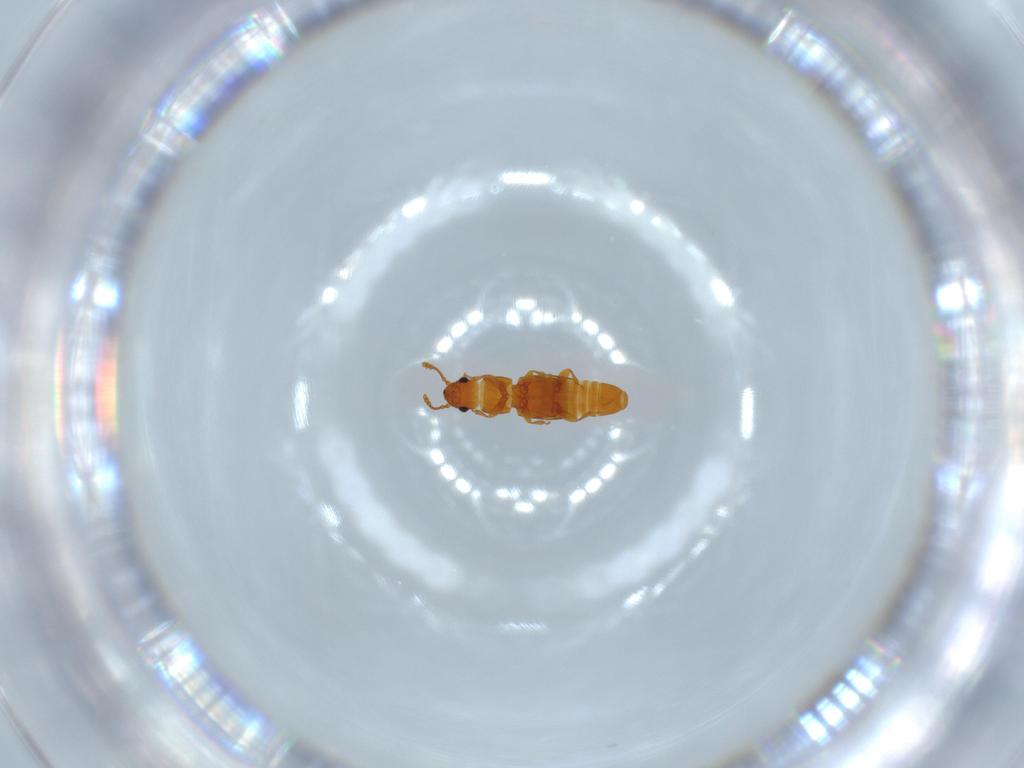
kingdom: Animalia
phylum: Arthropoda
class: Insecta
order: Coleoptera
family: Smicripidae
